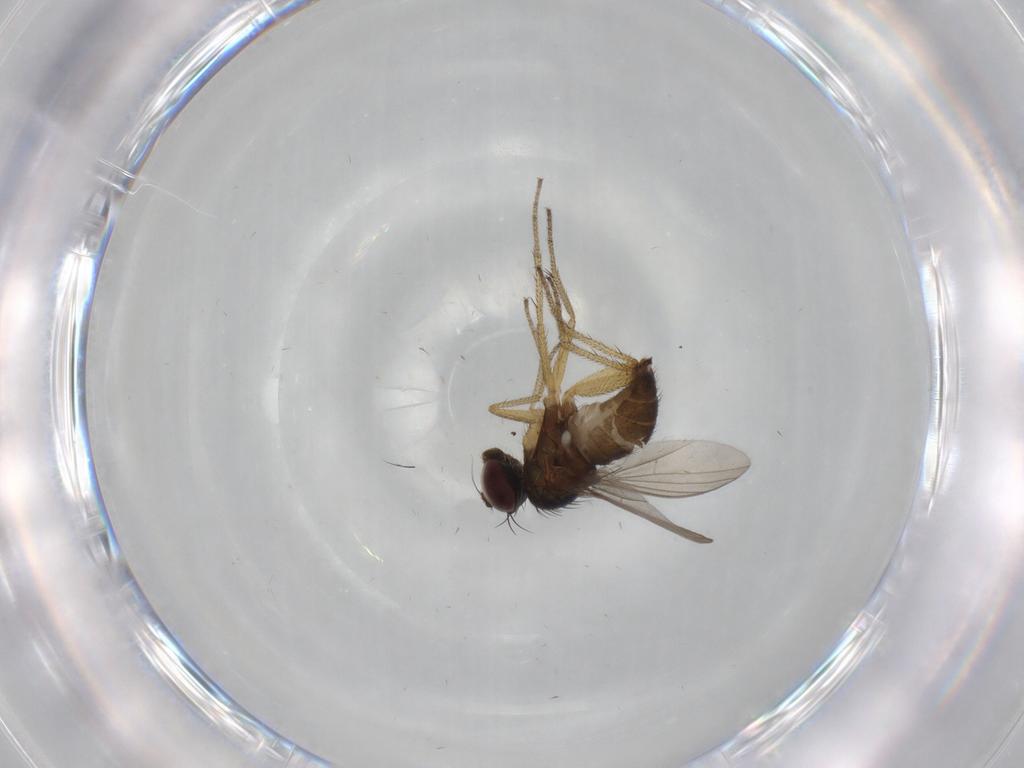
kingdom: Animalia
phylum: Arthropoda
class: Insecta
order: Diptera
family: Dolichopodidae
